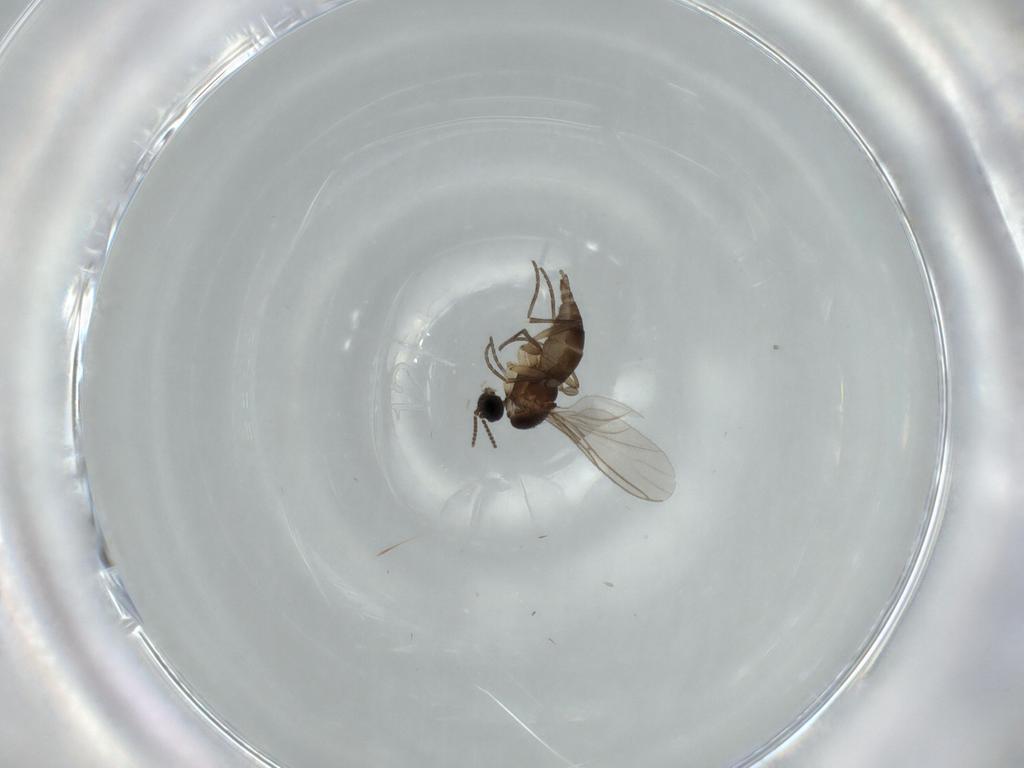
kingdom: Animalia
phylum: Arthropoda
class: Insecta
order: Diptera
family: Sciaridae
